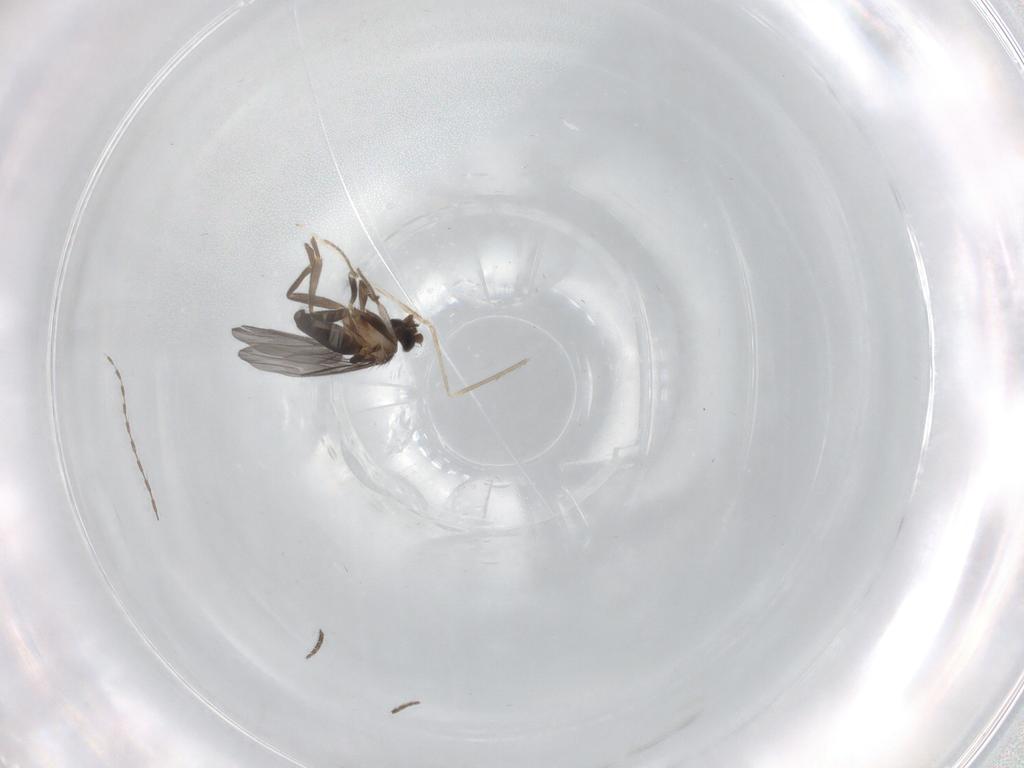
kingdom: Animalia
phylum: Arthropoda
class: Insecta
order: Diptera
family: Cecidomyiidae
